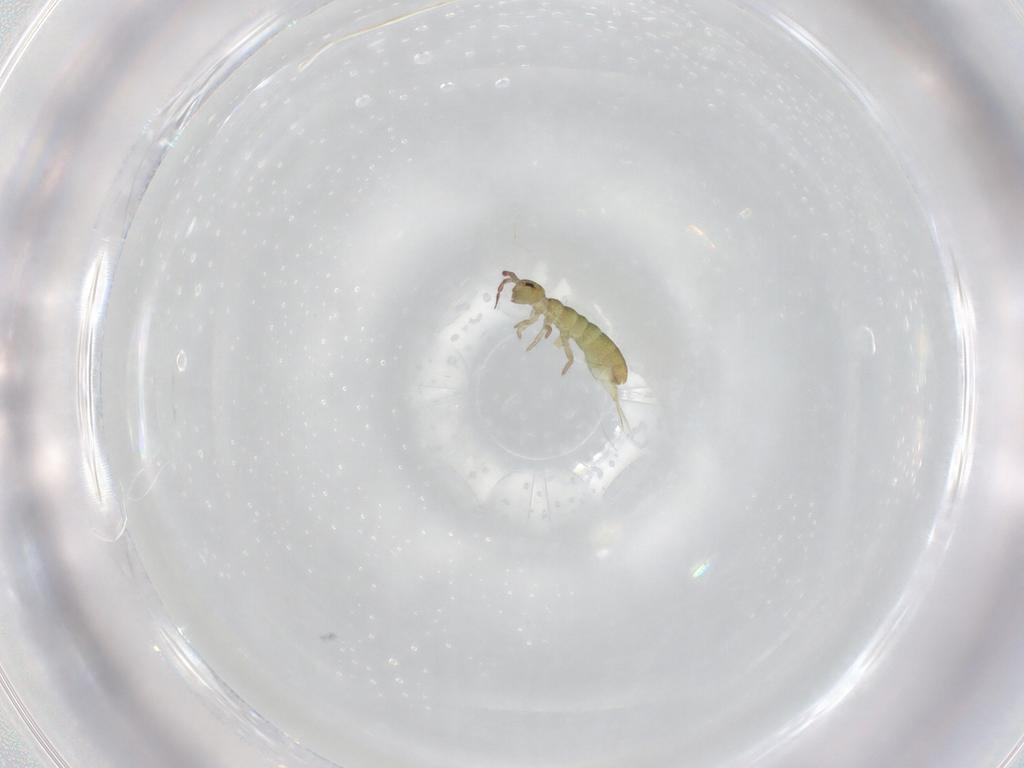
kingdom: Animalia
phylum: Arthropoda
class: Collembola
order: Entomobryomorpha
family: Isotomidae
